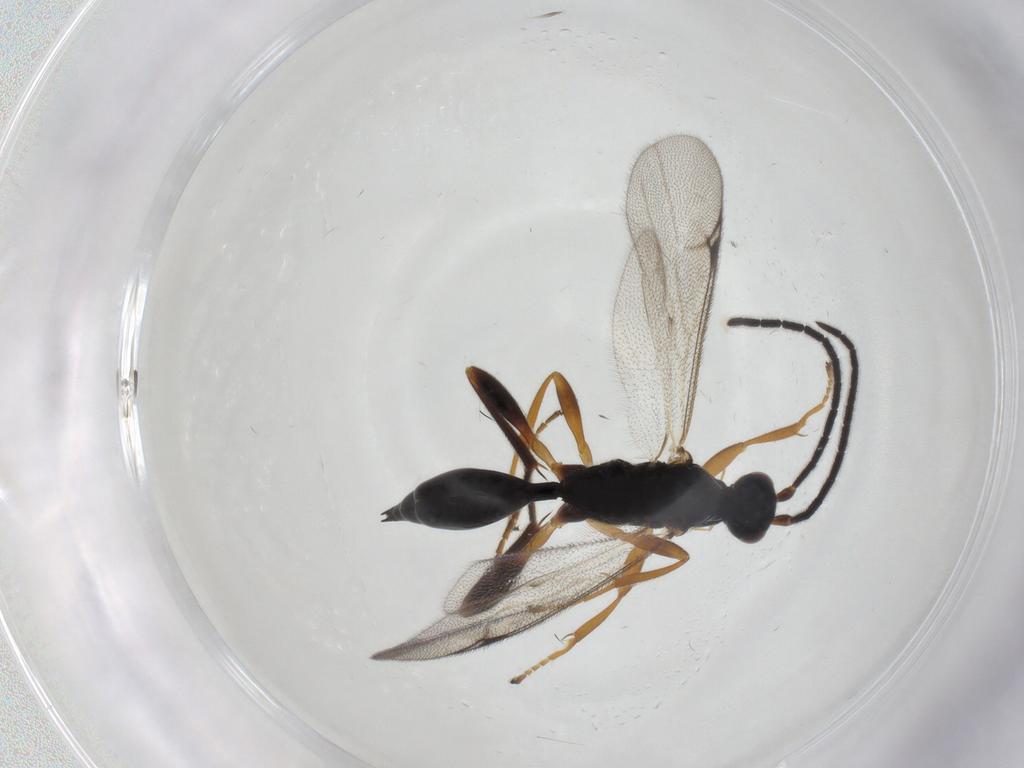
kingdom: Animalia
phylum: Arthropoda
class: Insecta
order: Hymenoptera
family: Proctotrupidae
